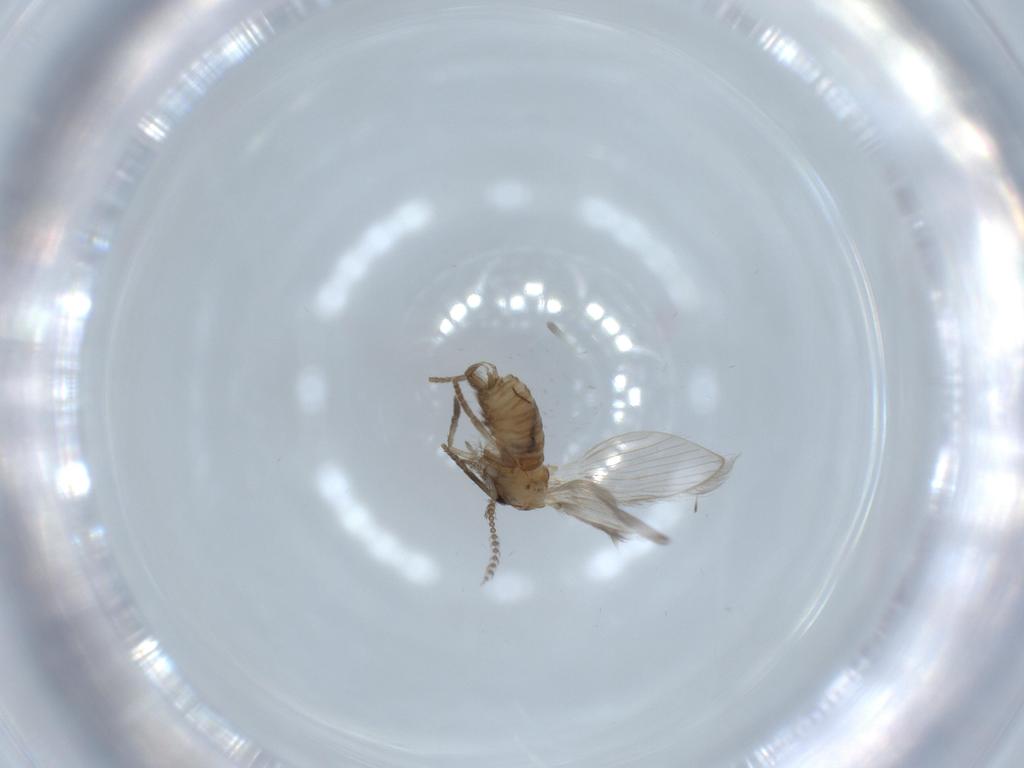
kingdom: Animalia
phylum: Arthropoda
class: Insecta
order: Diptera
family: Psychodidae
